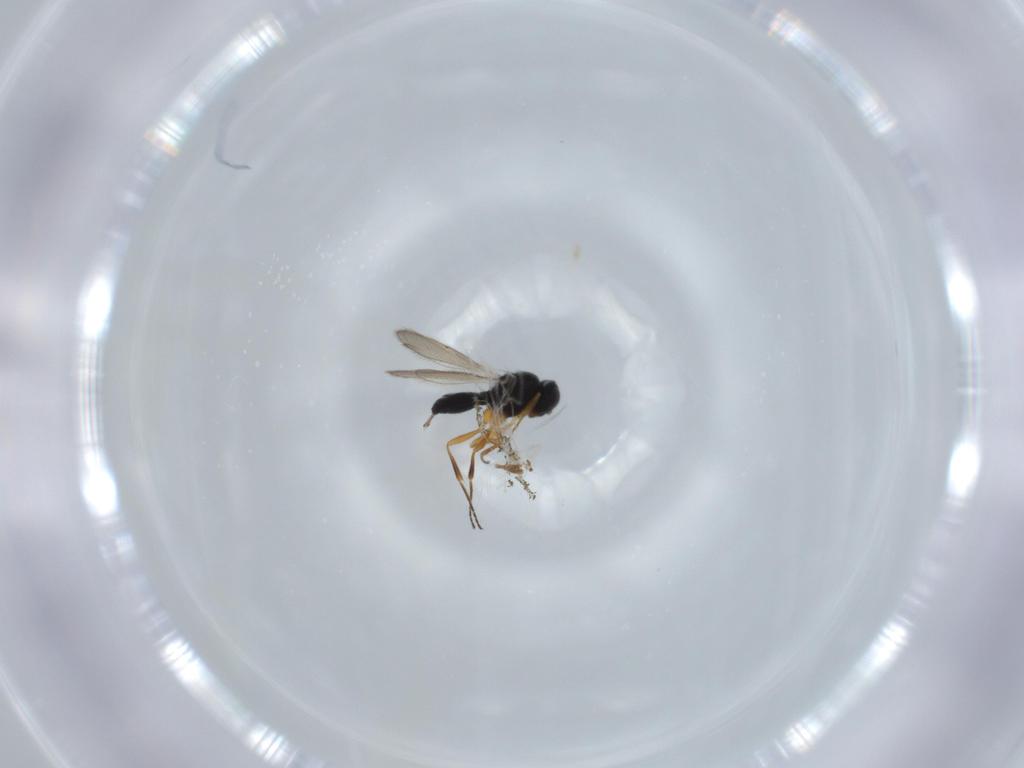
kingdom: Animalia
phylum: Arthropoda
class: Insecta
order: Hymenoptera
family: Scelionidae
